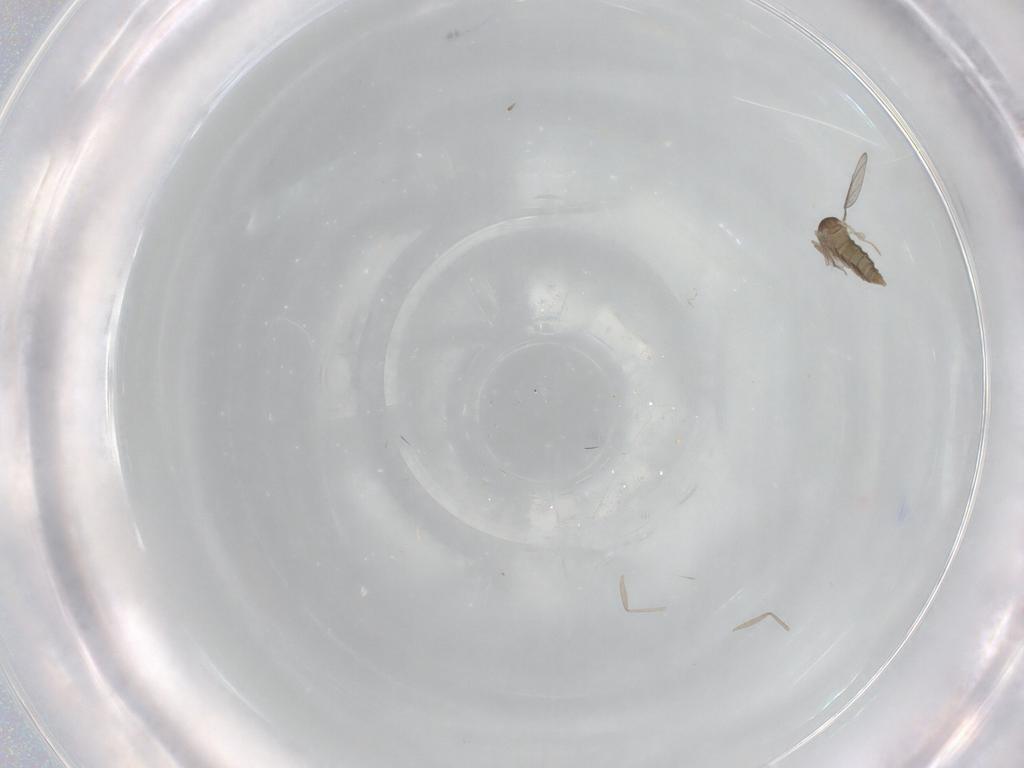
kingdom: Animalia
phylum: Arthropoda
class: Insecta
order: Diptera
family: Cecidomyiidae
